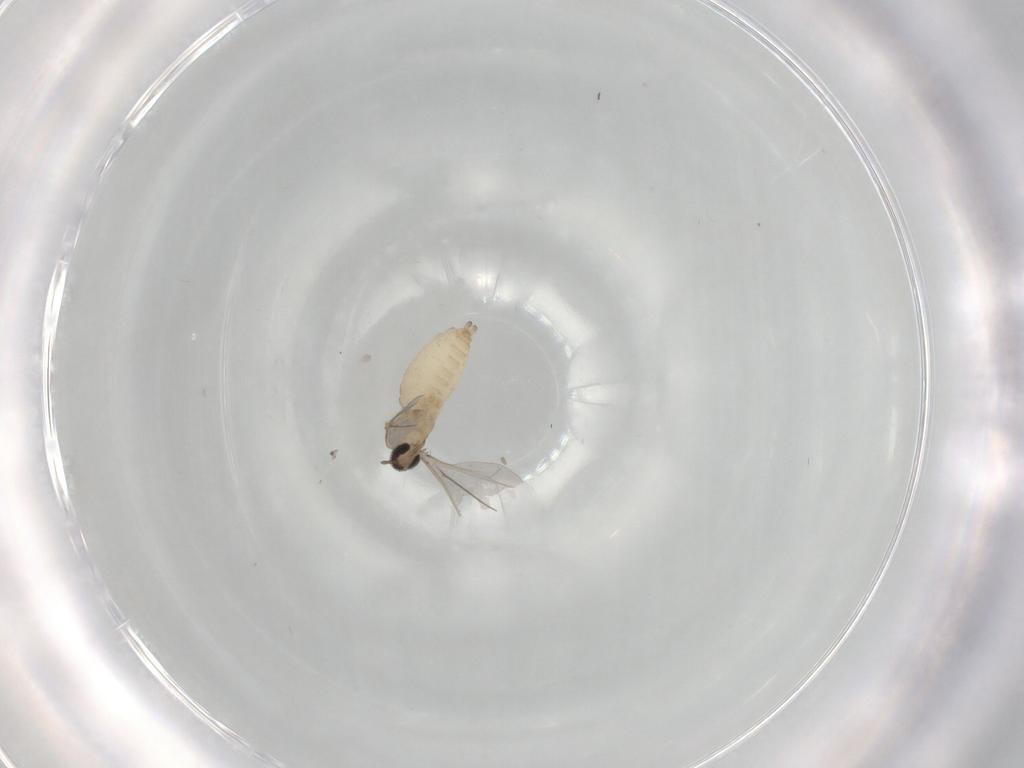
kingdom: Animalia
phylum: Arthropoda
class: Insecta
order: Diptera
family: Cecidomyiidae
